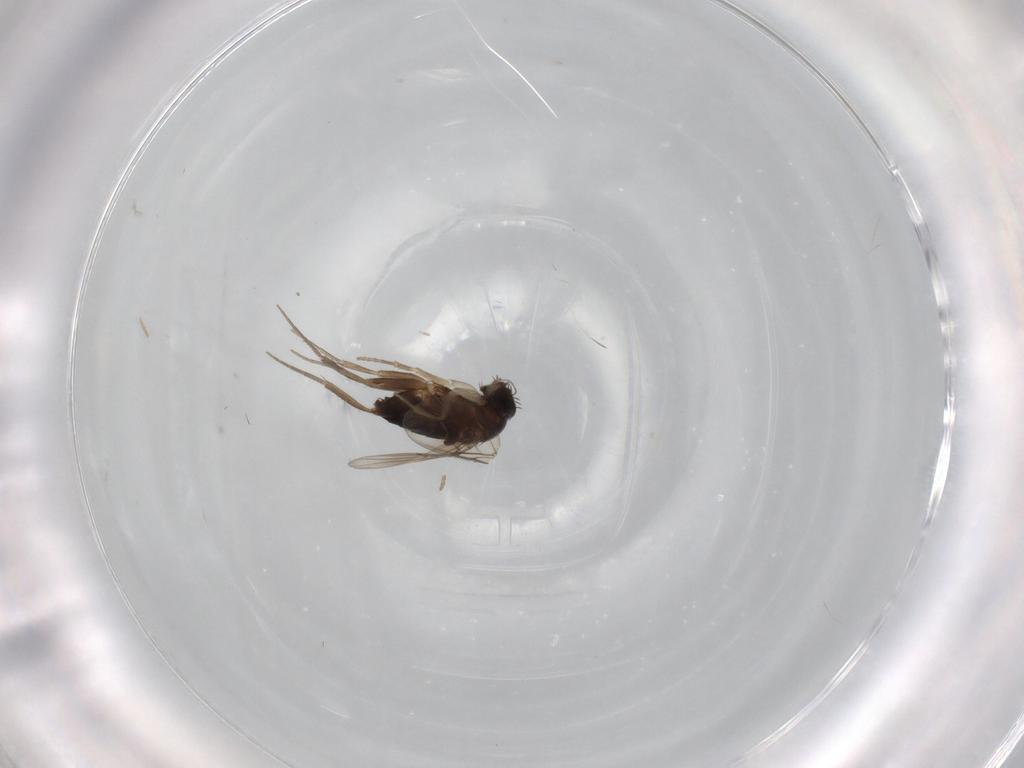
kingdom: Animalia
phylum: Arthropoda
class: Insecta
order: Diptera
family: Phoridae
